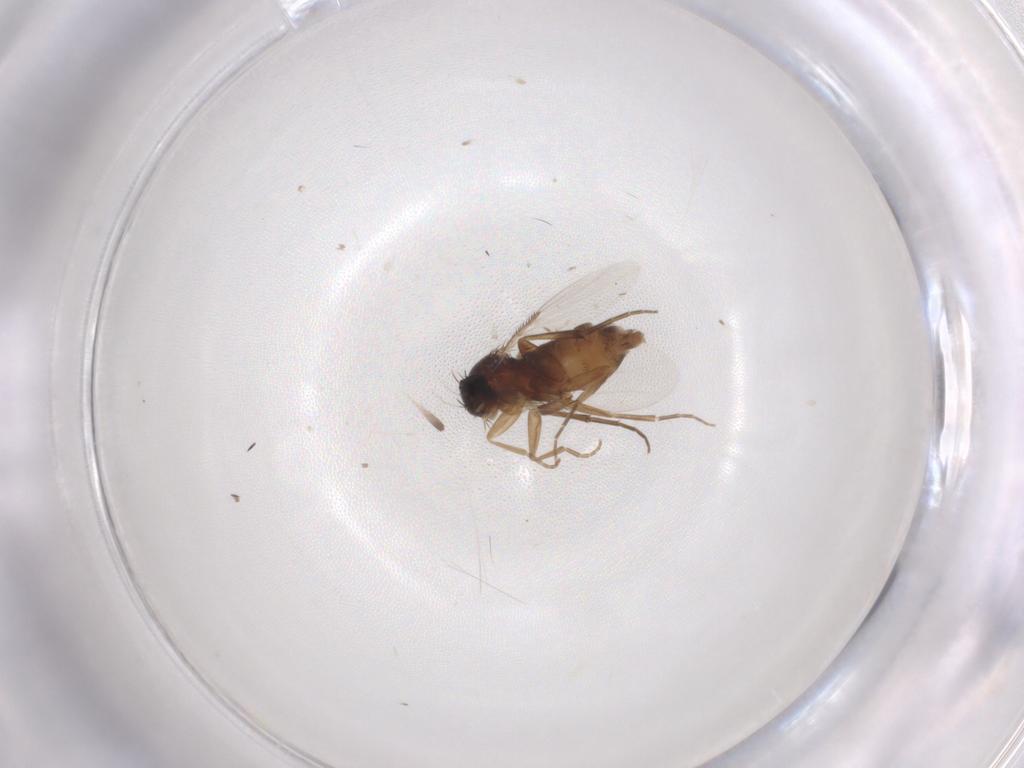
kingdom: Animalia
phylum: Arthropoda
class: Insecta
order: Diptera
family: Phoridae
